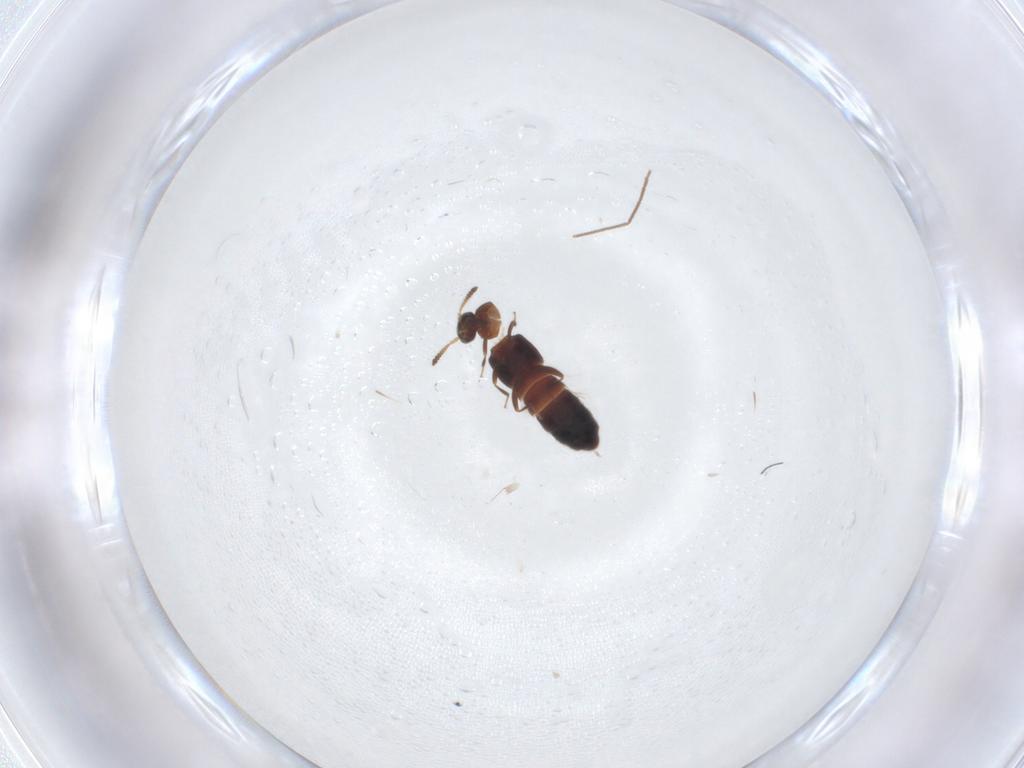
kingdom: Animalia
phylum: Arthropoda
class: Insecta
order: Coleoptera
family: Staphylinidae
